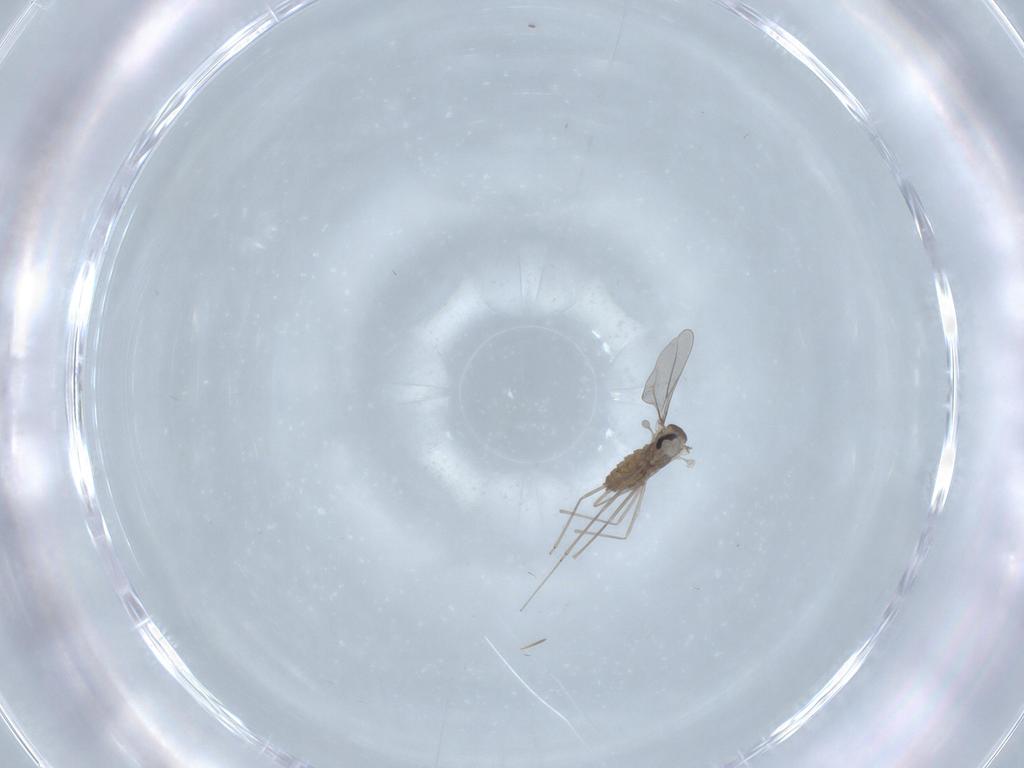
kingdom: Animalia
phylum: Arthropoda
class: Insecta
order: Diptera
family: Cecidomyiidae
